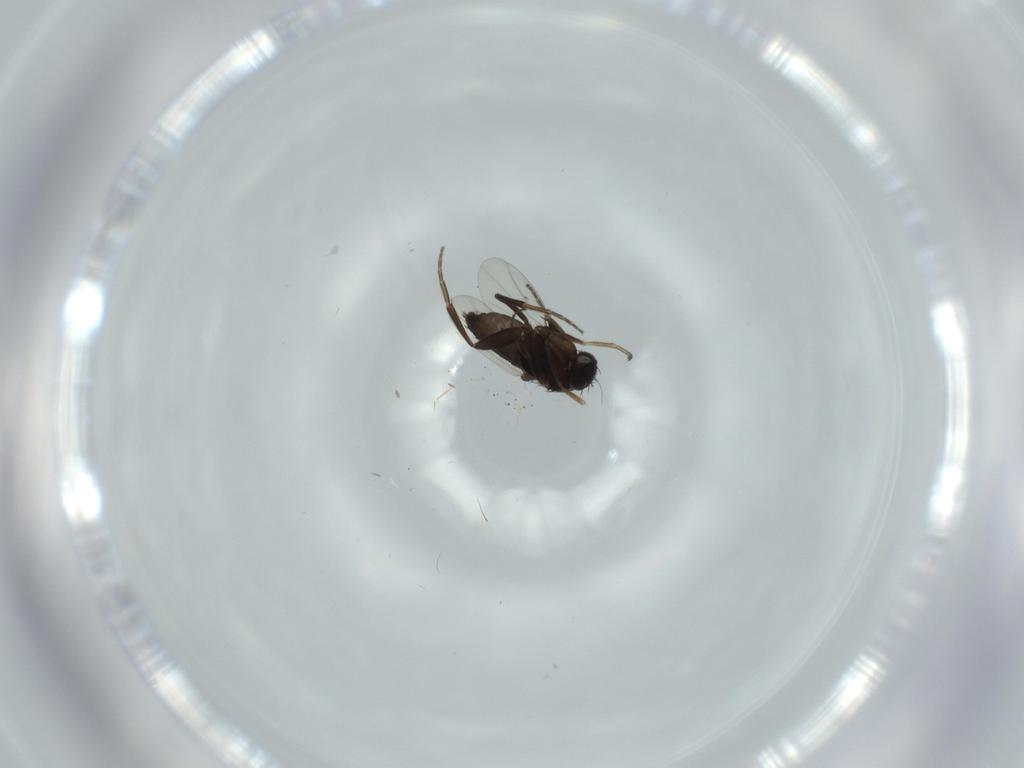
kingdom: Animalia
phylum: Arthropoda
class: Insecta
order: Diptera
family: Phoridae
